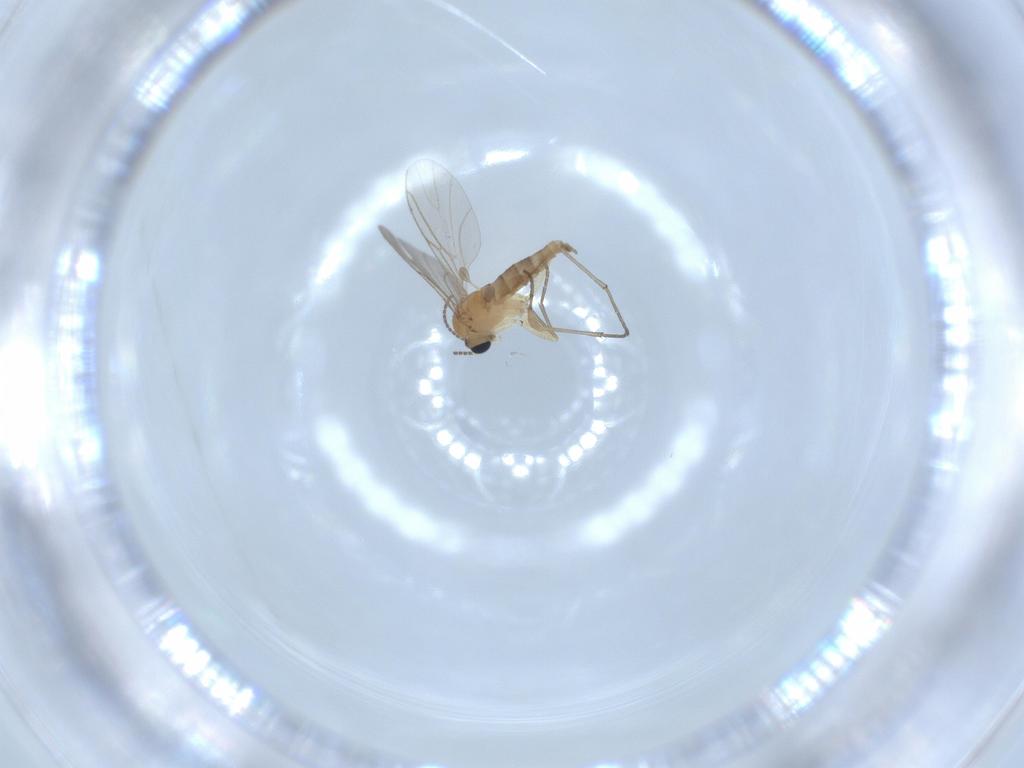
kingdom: Animalia
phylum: Arthropoda
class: Insecta
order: Diptera
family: Sciaridae
